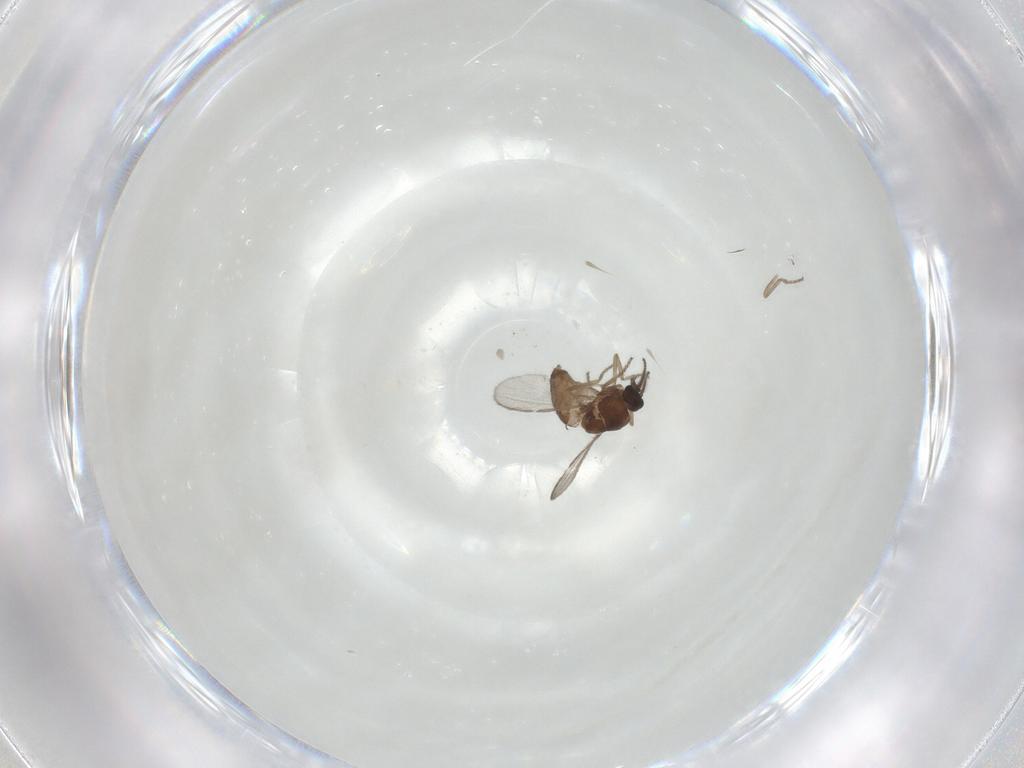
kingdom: Animalia
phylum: Arthropoda
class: Insecta
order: Diptera
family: Ceratopogonidae
